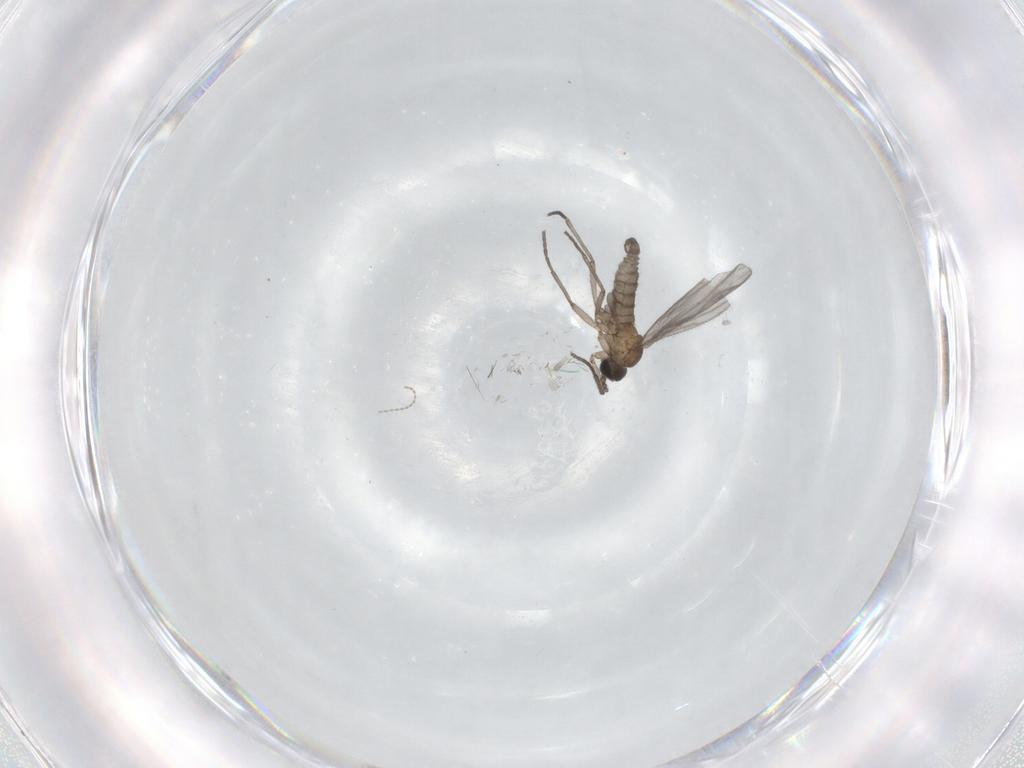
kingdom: Animalia
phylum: Arthropoda
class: Insecta
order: Diptera
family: Sciaridae
